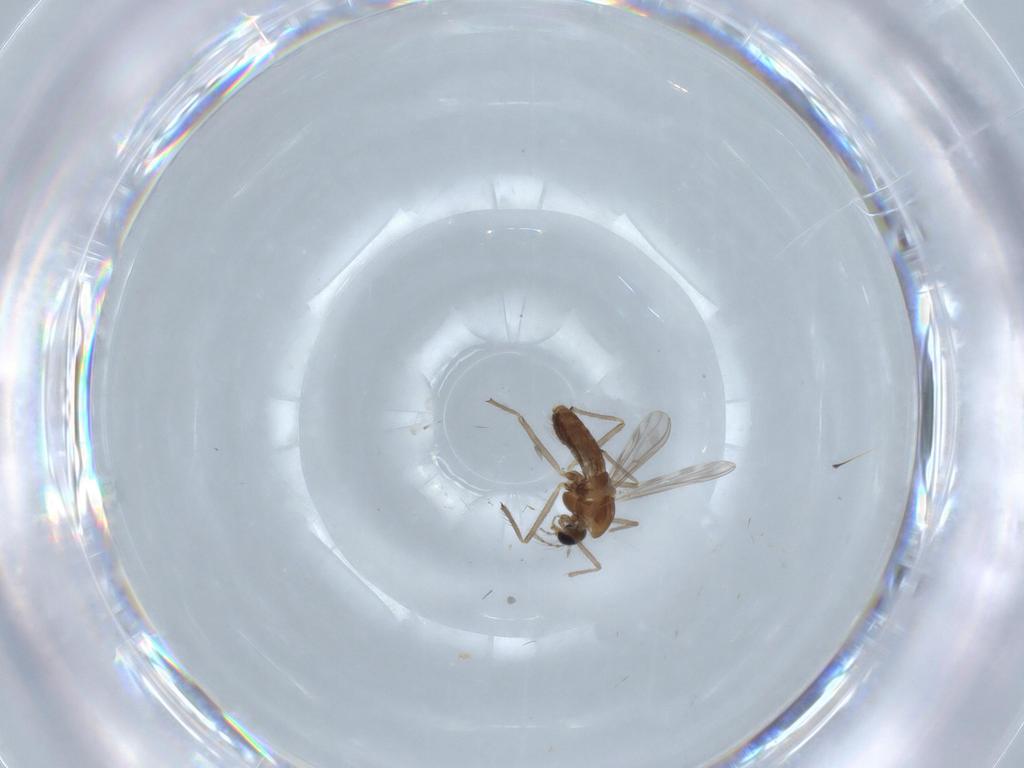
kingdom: Animalia
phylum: Arthropoda
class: Insecta
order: Diptera
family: Chironomidae
